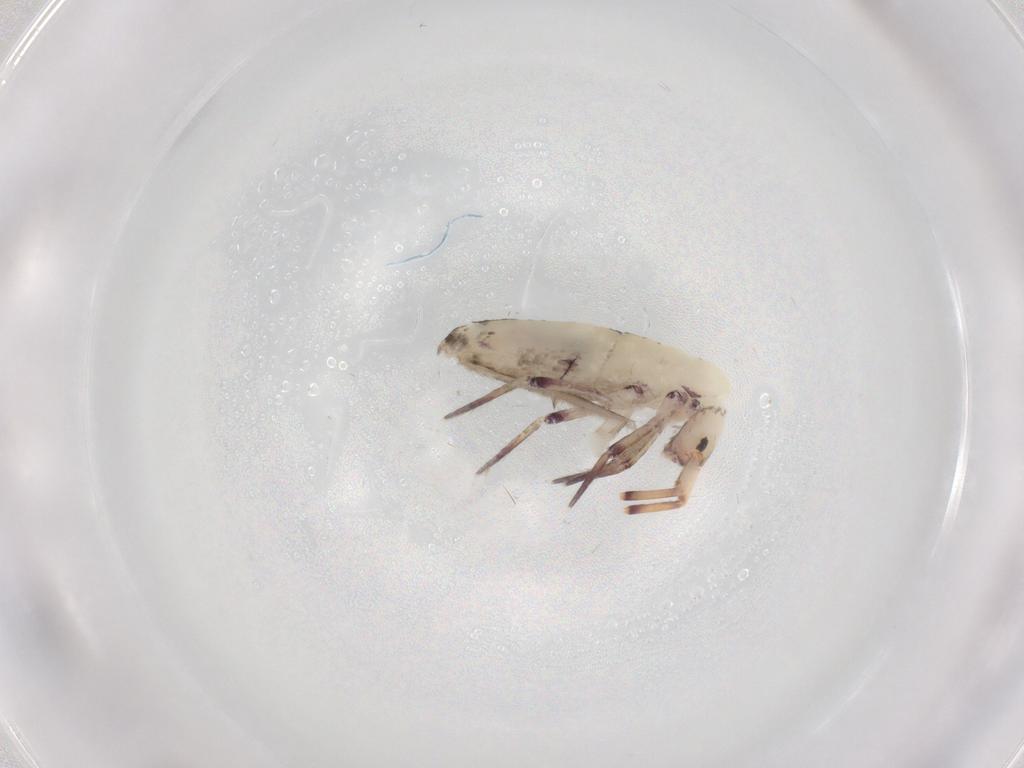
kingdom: Animalia
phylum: Arthropoda
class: Collembola
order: Entomobryomorpha
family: Entomobryidae
